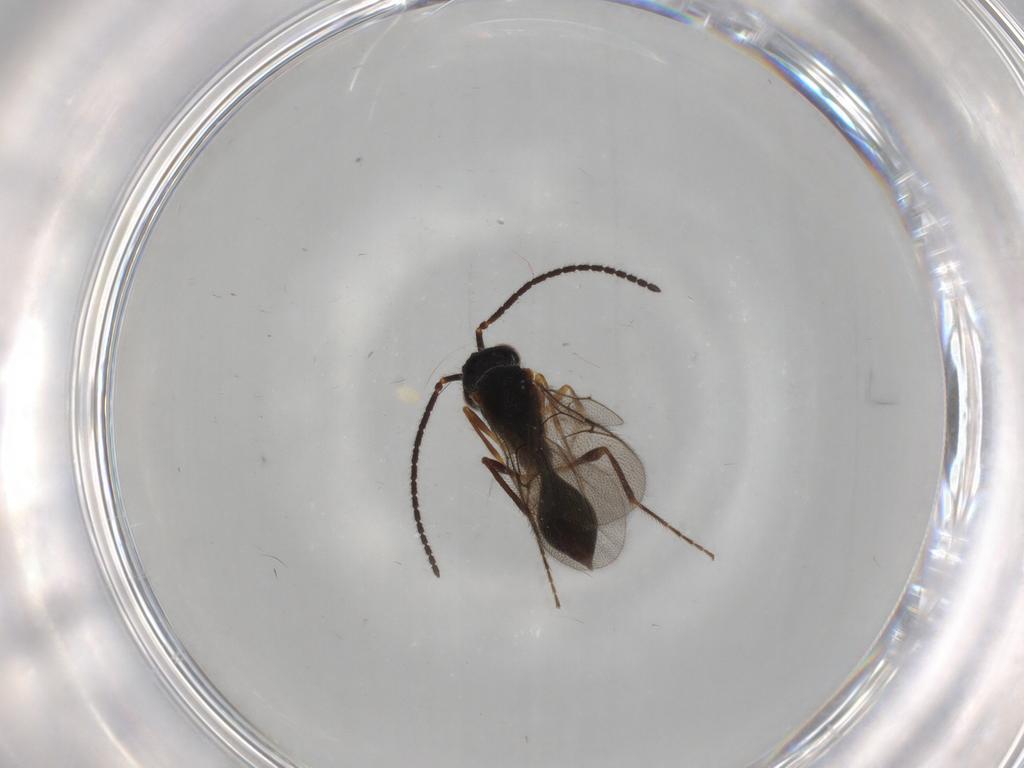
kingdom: Animalia
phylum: Arthropoda
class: Insecta
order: Hymenoptera
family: Diapriidae
